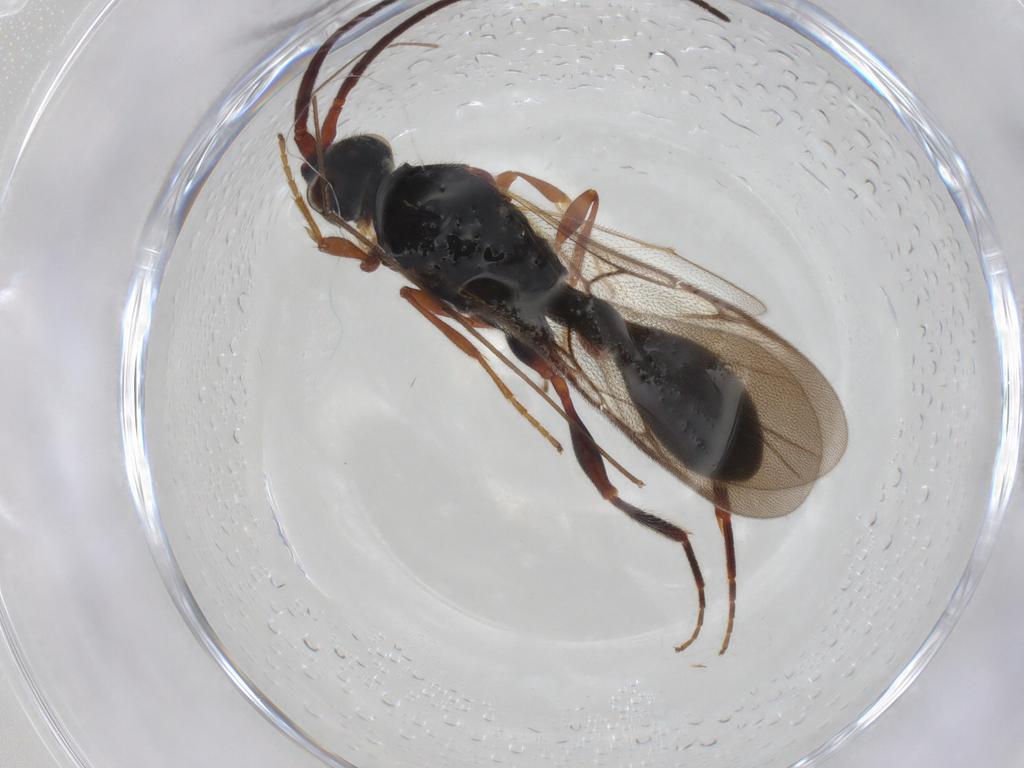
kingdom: Animalia
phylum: Arthropoda
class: Insecta
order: Hymenoptera
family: Diapriidae
